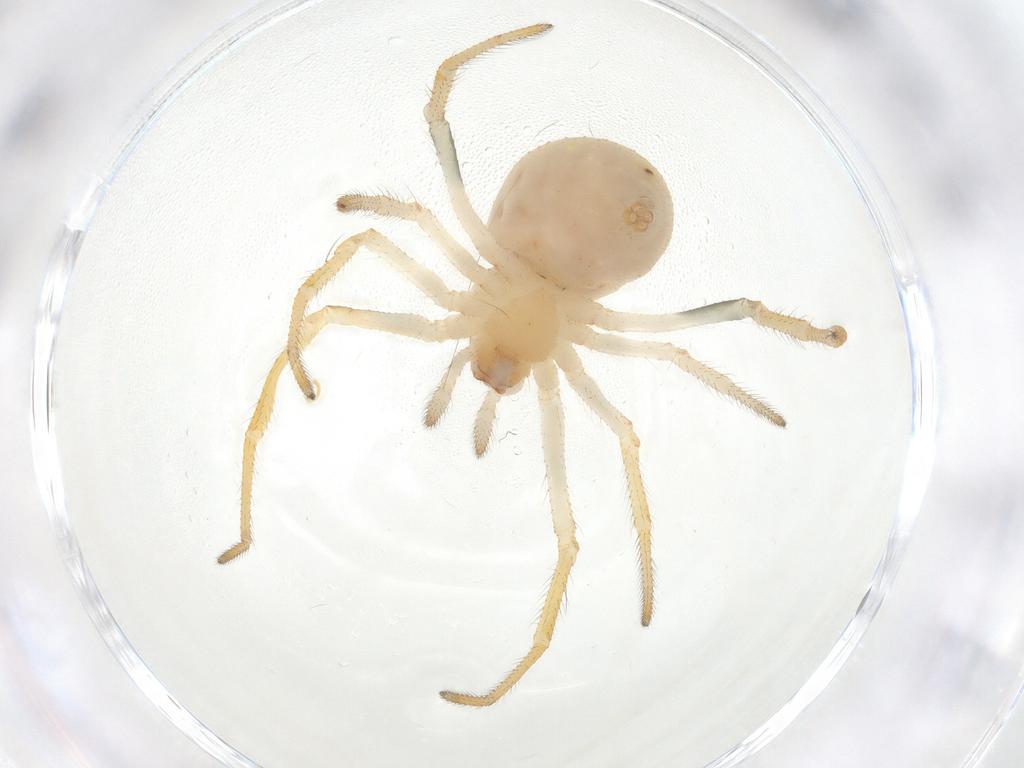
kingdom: Animalia
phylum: Arthropoda
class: Arachnida
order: Araneae
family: Theridiidae
